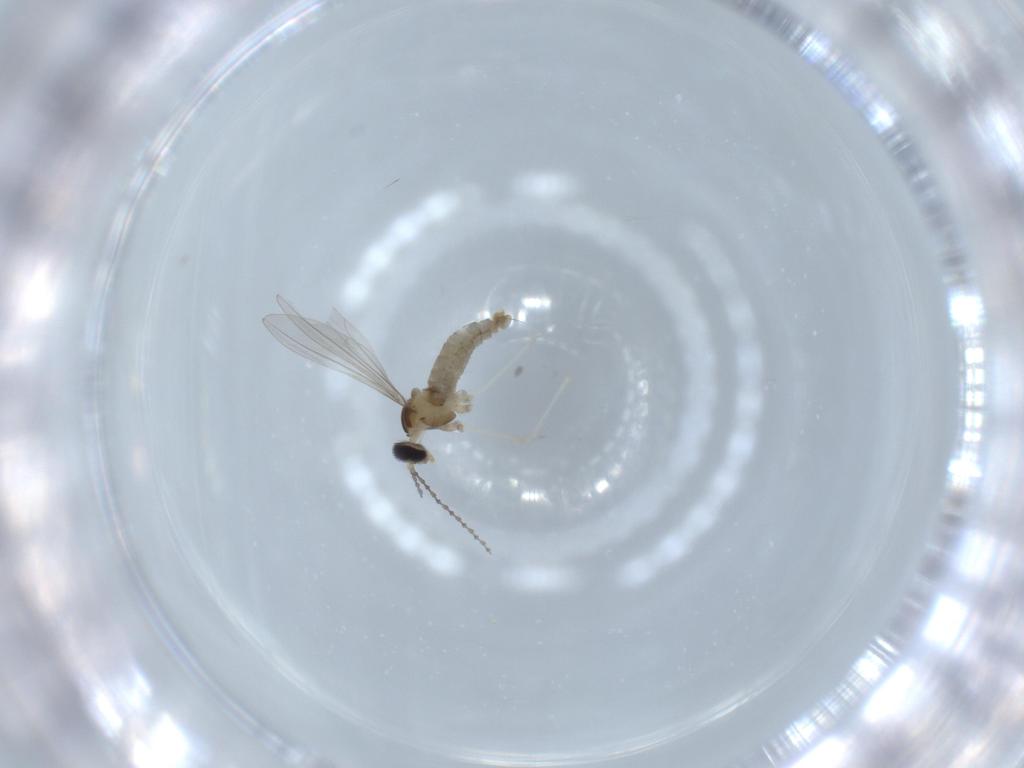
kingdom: Animalia
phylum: Arthropoda
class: Insecta
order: Diptera
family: Cecidomyiidae
